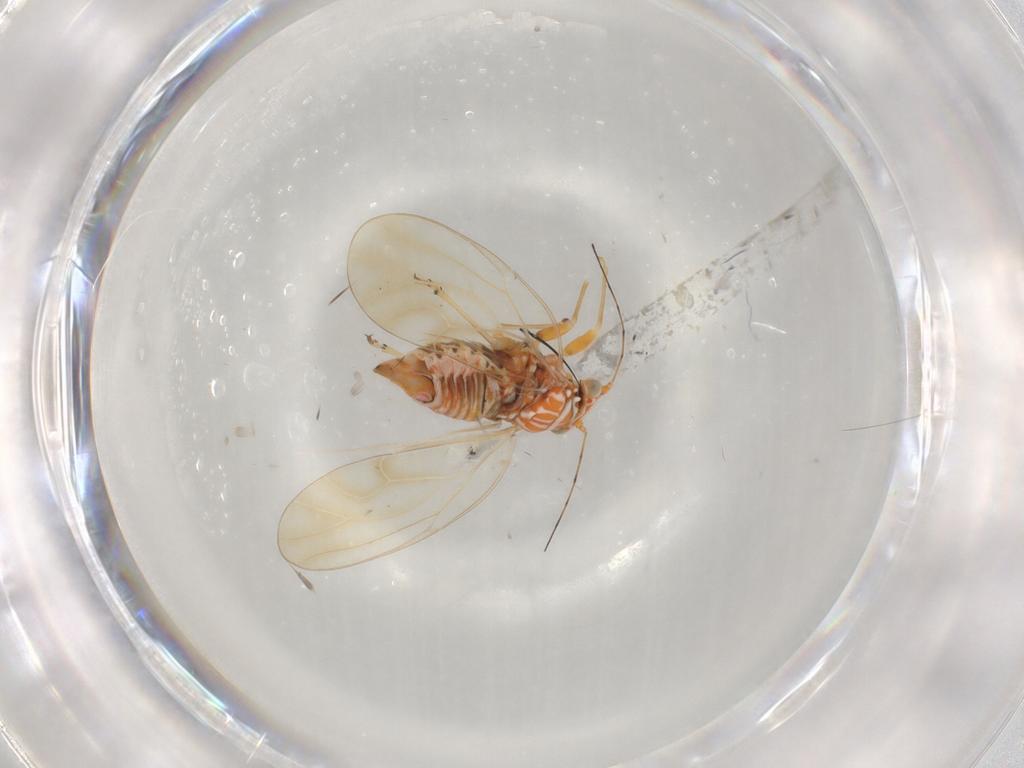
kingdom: Animalia
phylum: Arthropoda
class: Insecta
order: Hemiptera
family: Psyllidae
